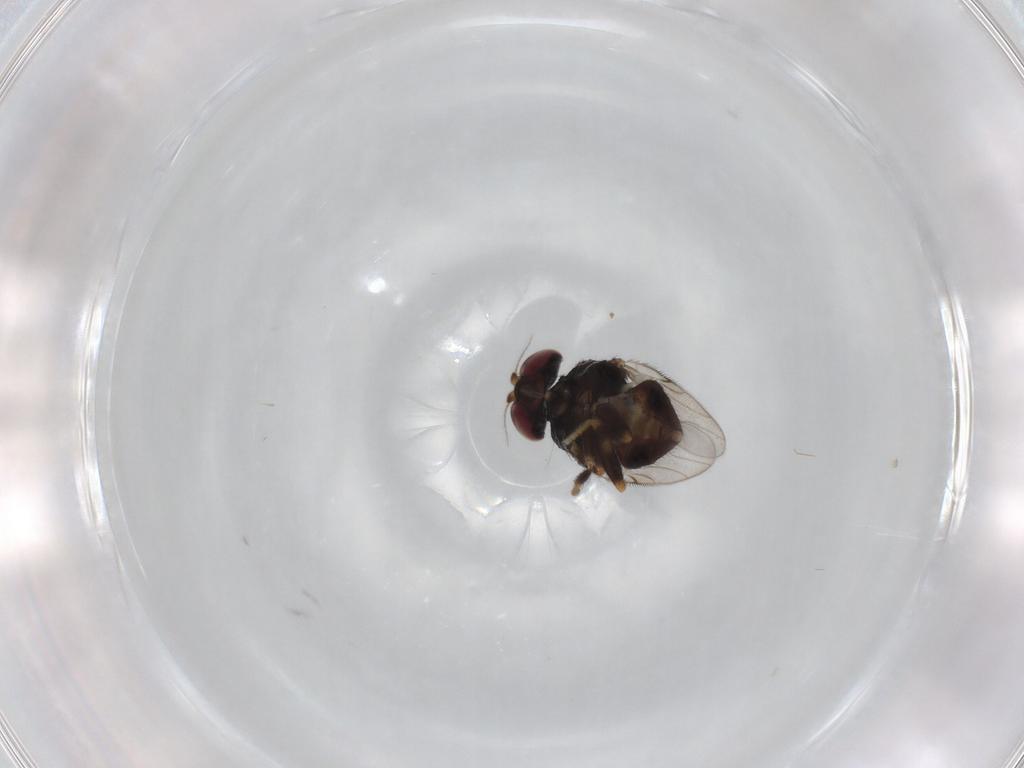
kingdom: Animalia
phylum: Arthropoda
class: Insecta
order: Diptera
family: Chloropidae
